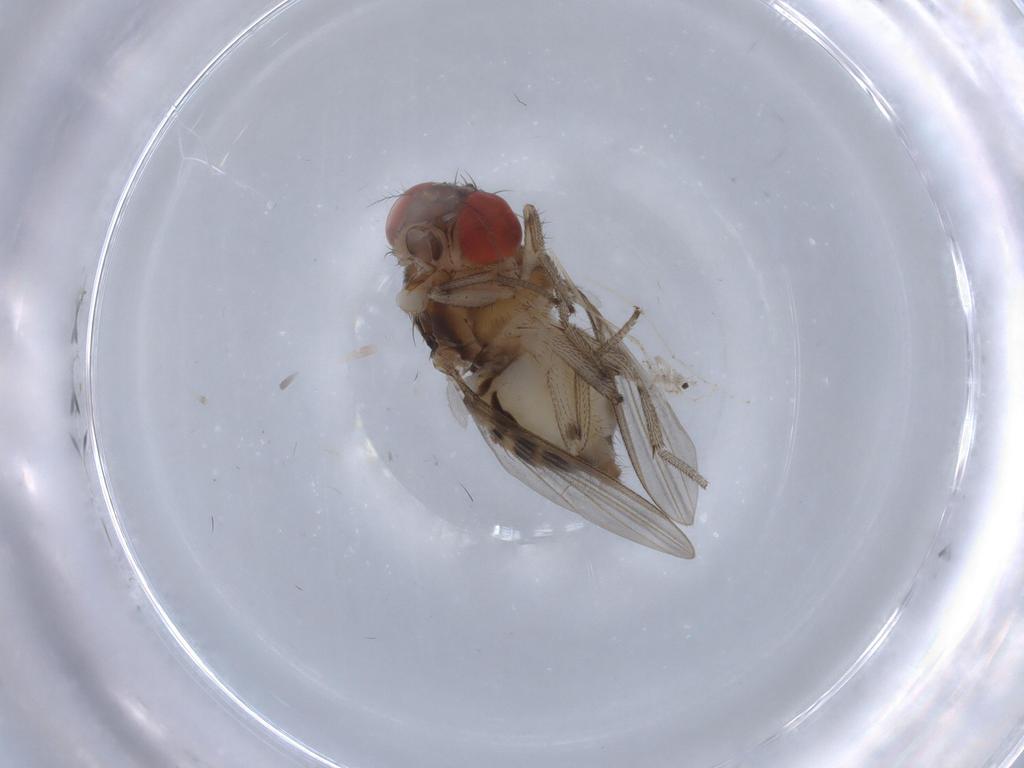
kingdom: Animalia
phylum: Arthropoda
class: Insecta
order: Diptera
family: Drosophilidae
